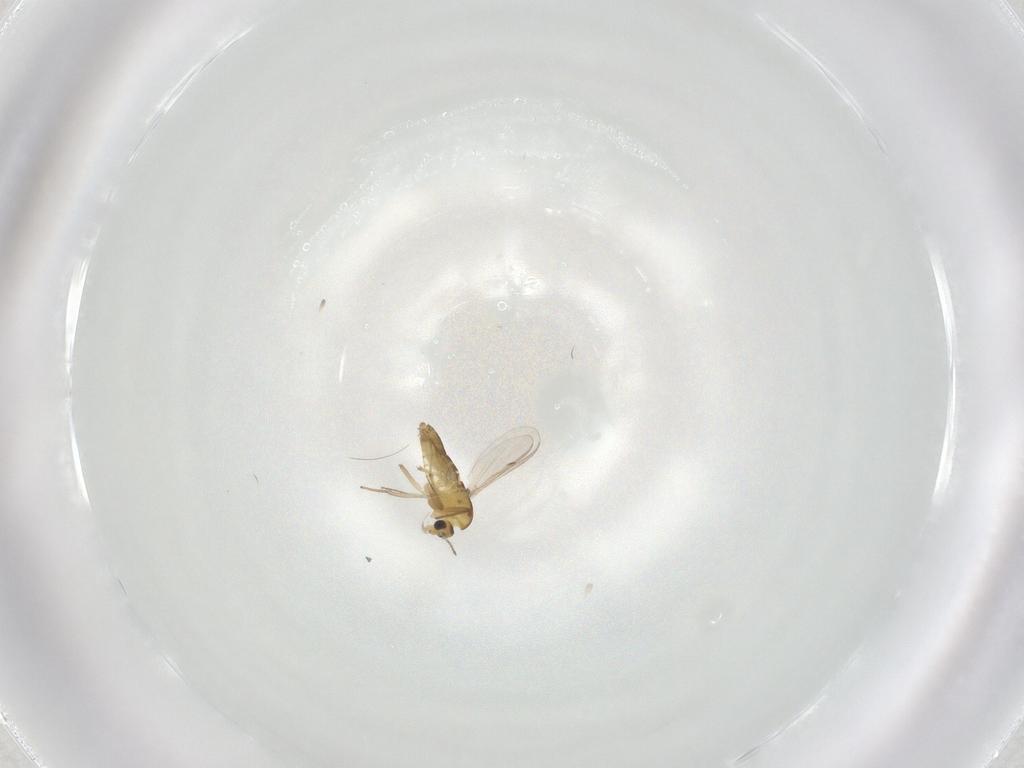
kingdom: Animalia
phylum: Arthropoda
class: Insecta
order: Diptera
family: Chironomidae
